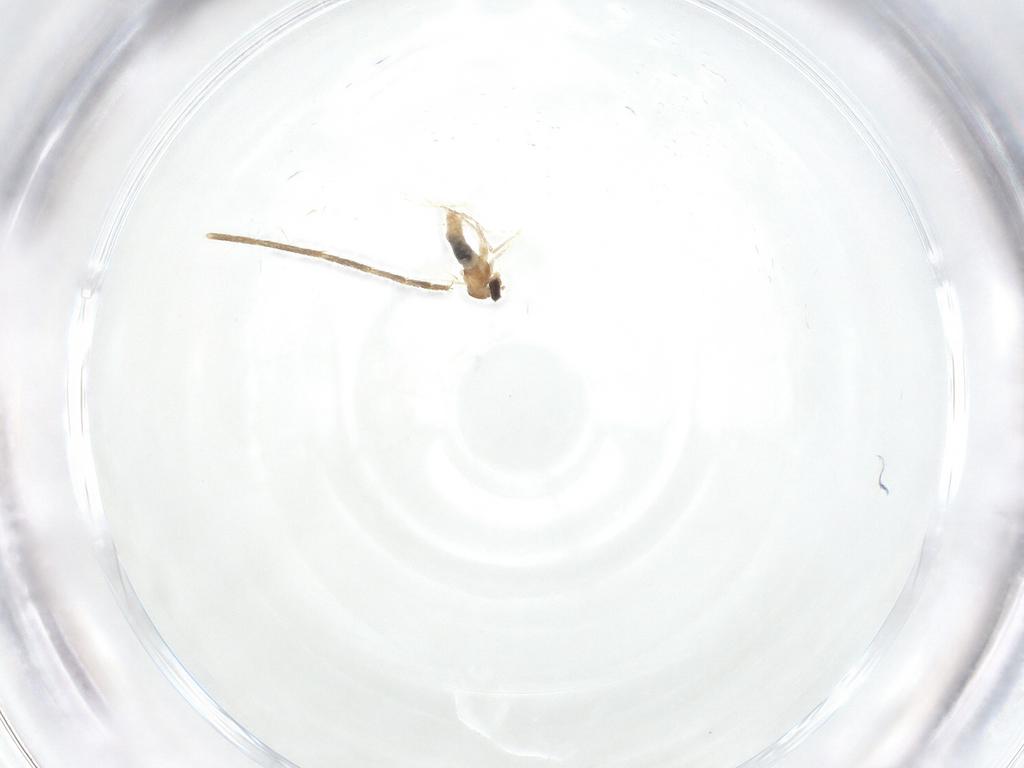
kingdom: Animalia
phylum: Arthropoda
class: Insecta
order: Diptera
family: Cecidomyiidae
